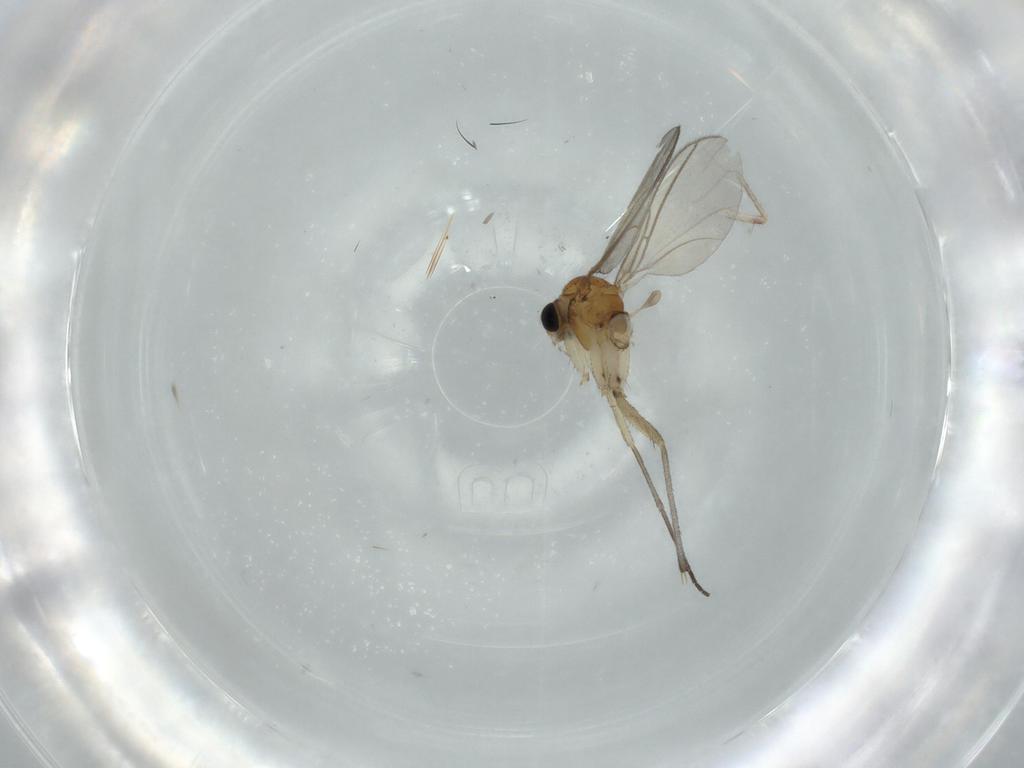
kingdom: Animalia
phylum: Arthropoda
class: Insecta
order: Diptera
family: Sciaridae
